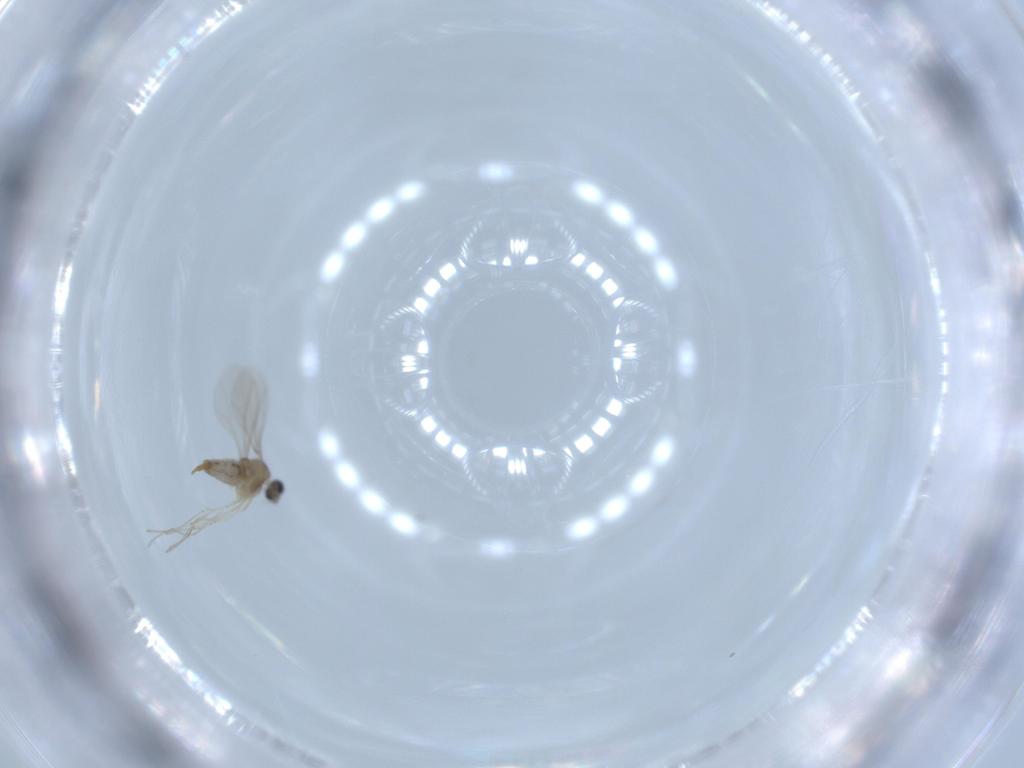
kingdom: Animalia
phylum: Arthropoda
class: Insecta
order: Diptera
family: Cecidomyiidae
